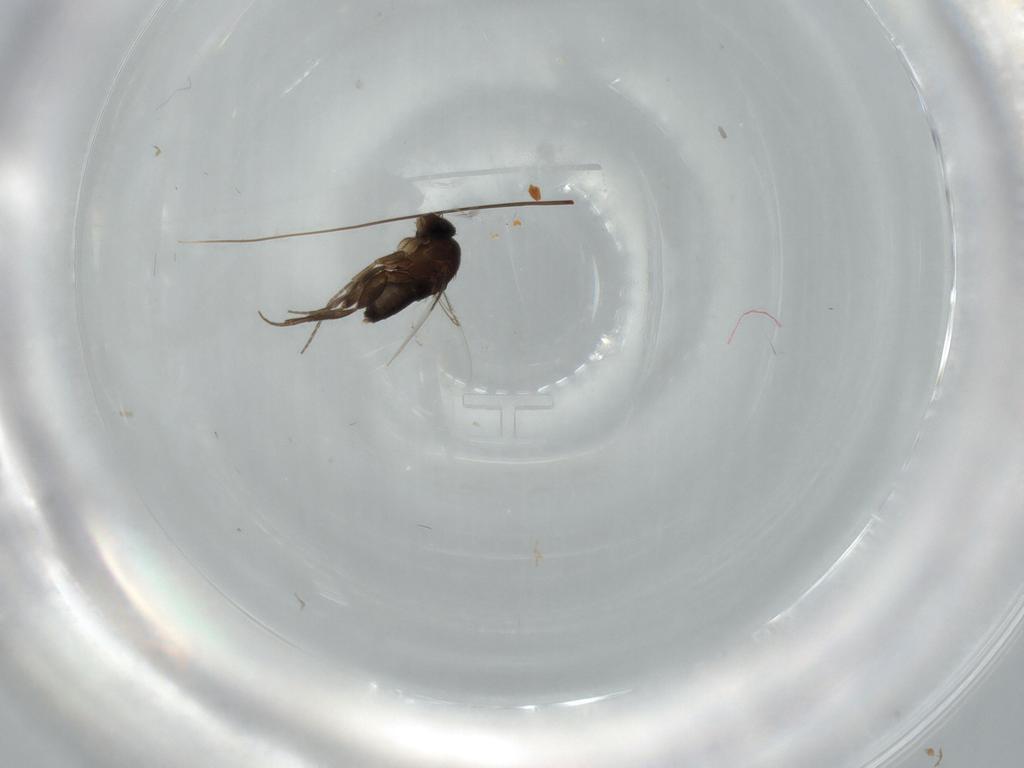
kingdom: Animalia
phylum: Arthropoda
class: Insecta
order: Diptera
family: Phoridae
